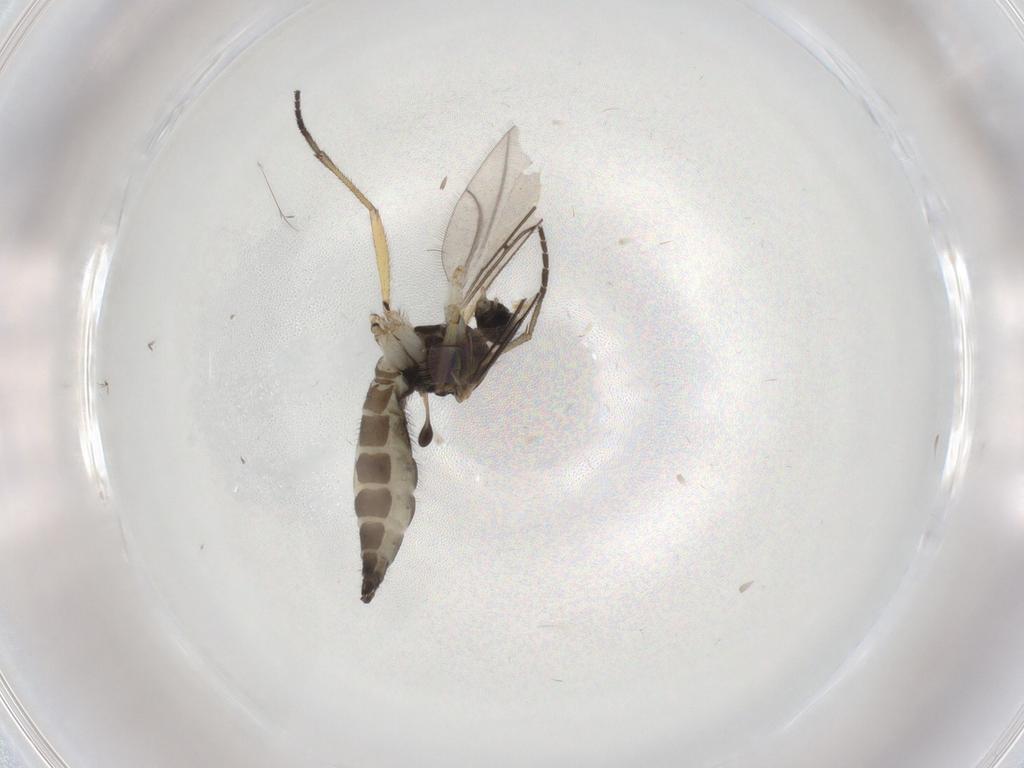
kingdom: Animalia
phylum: Arthropoda
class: Insecta
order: Diptera
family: Sciaridae
